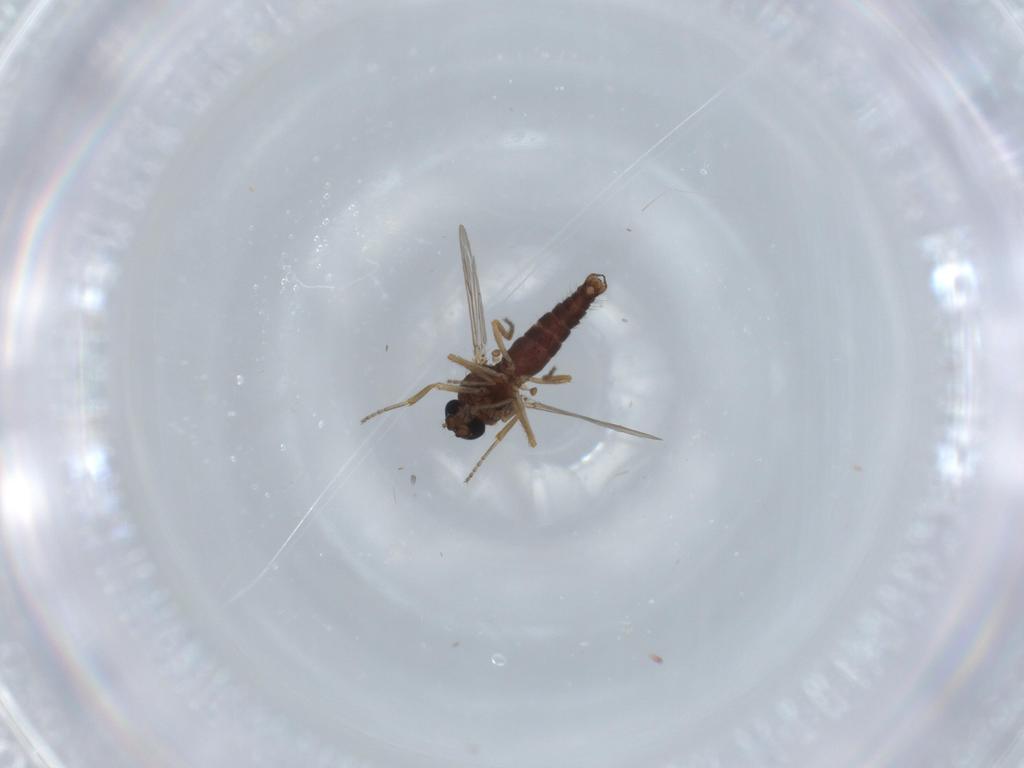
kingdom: Animalia
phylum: Arthropoda
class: Insecta
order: Diptera
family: Ceratopogonidae
